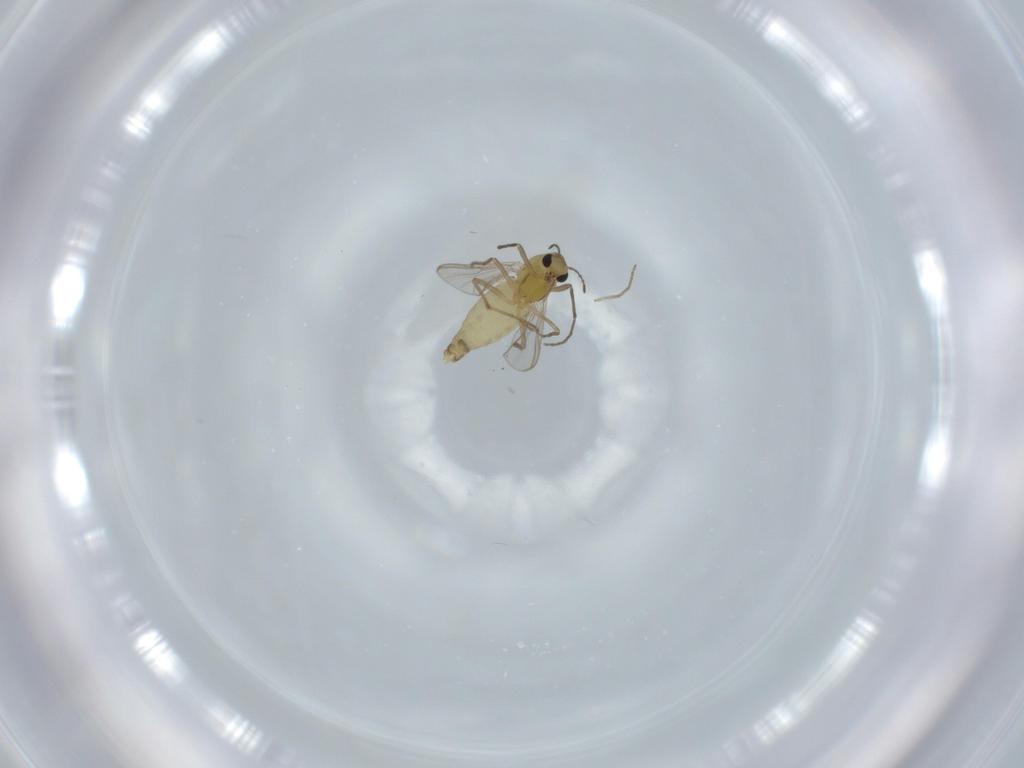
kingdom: Animalia
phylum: Arthropoda
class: Insecta
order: Diptera
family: Chironomidae
